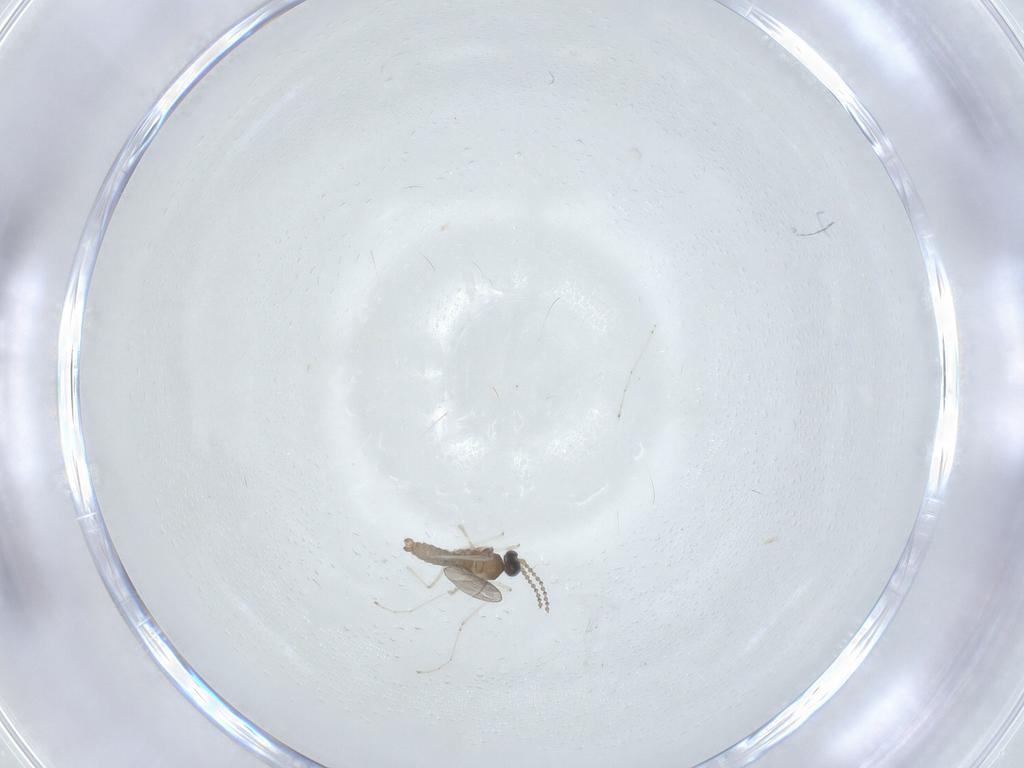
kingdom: Animalia
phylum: Arthropoda
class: Insecta
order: Diptera
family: Cecidomyiidae
